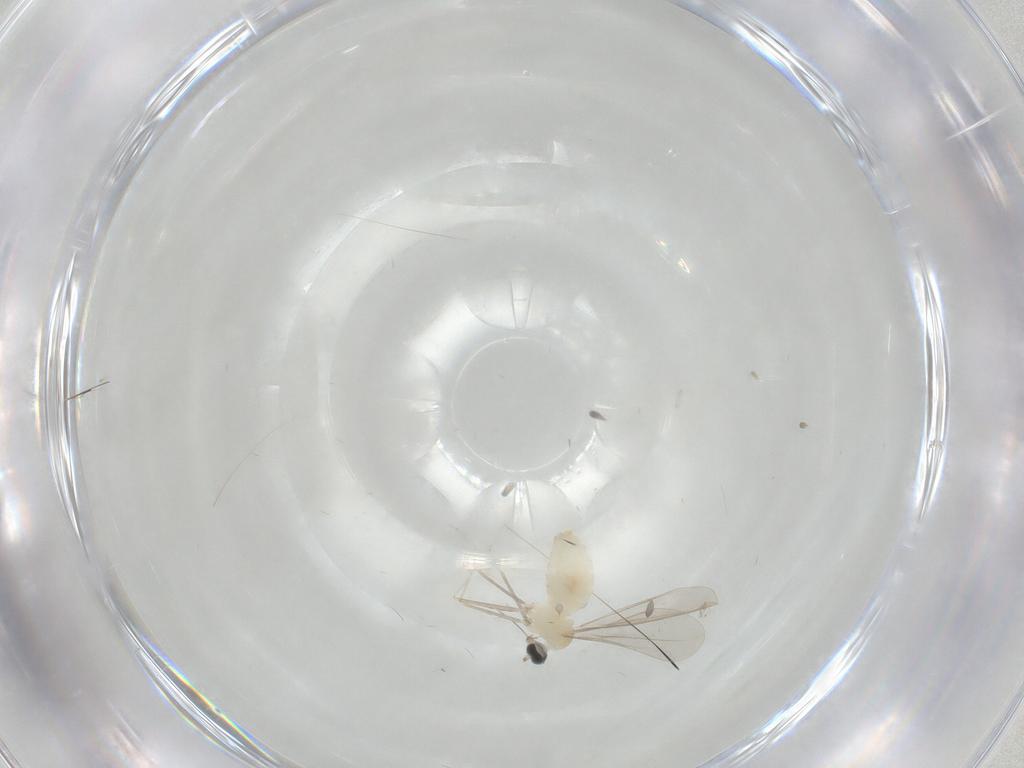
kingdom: Animalia
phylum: Arthropoda
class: Insecta
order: Diptera
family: Cecidomyiidae
